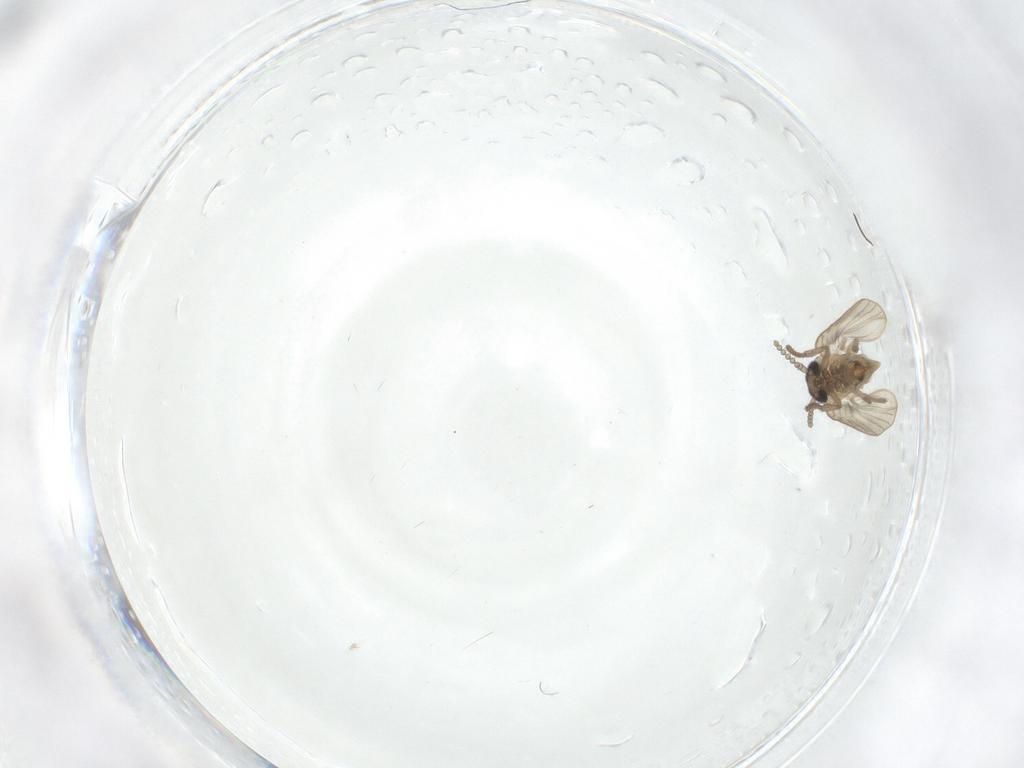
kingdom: Animalia
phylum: Arthropoda
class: Insecta
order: Diptera
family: Psychodidae
